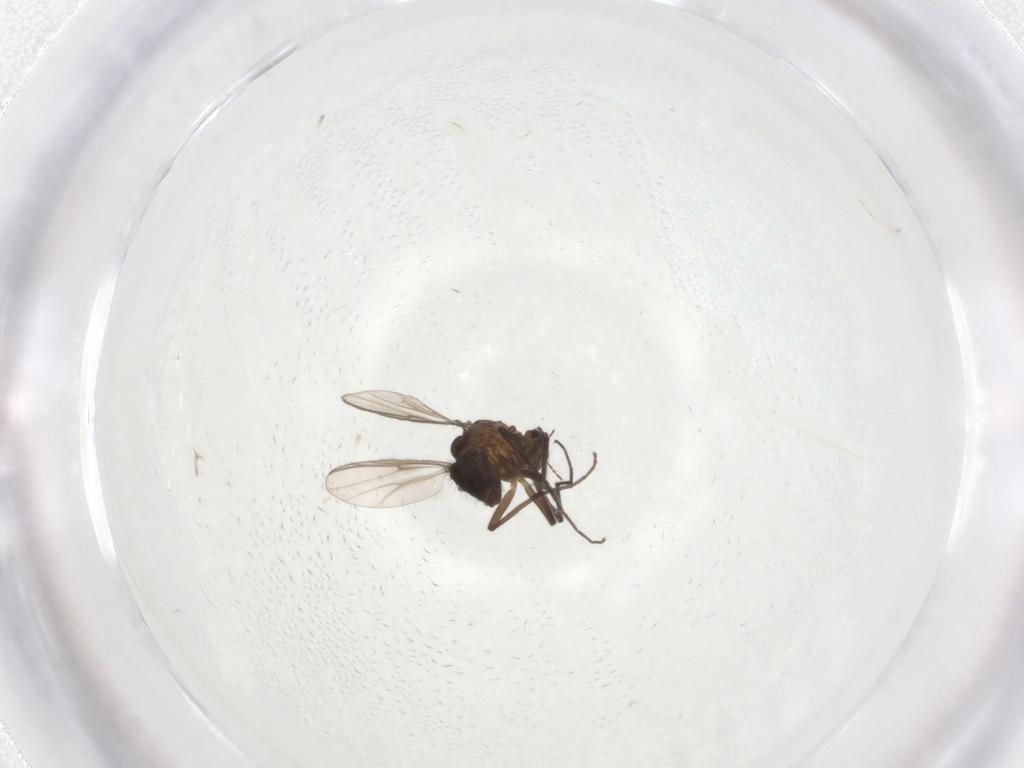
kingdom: Animalia
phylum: Arthropoda
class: Insecta
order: Diptera
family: Chironomidae
